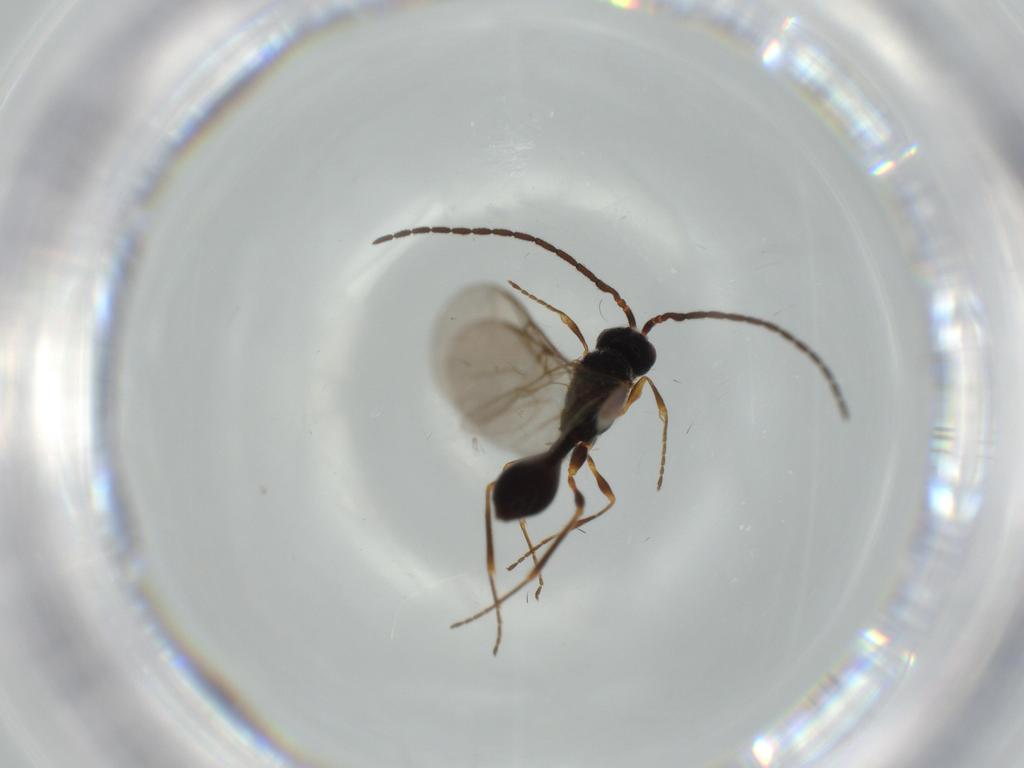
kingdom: Animalia
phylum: Arthropoda
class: Insecta
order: Hymenoptera
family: Diapriidae
